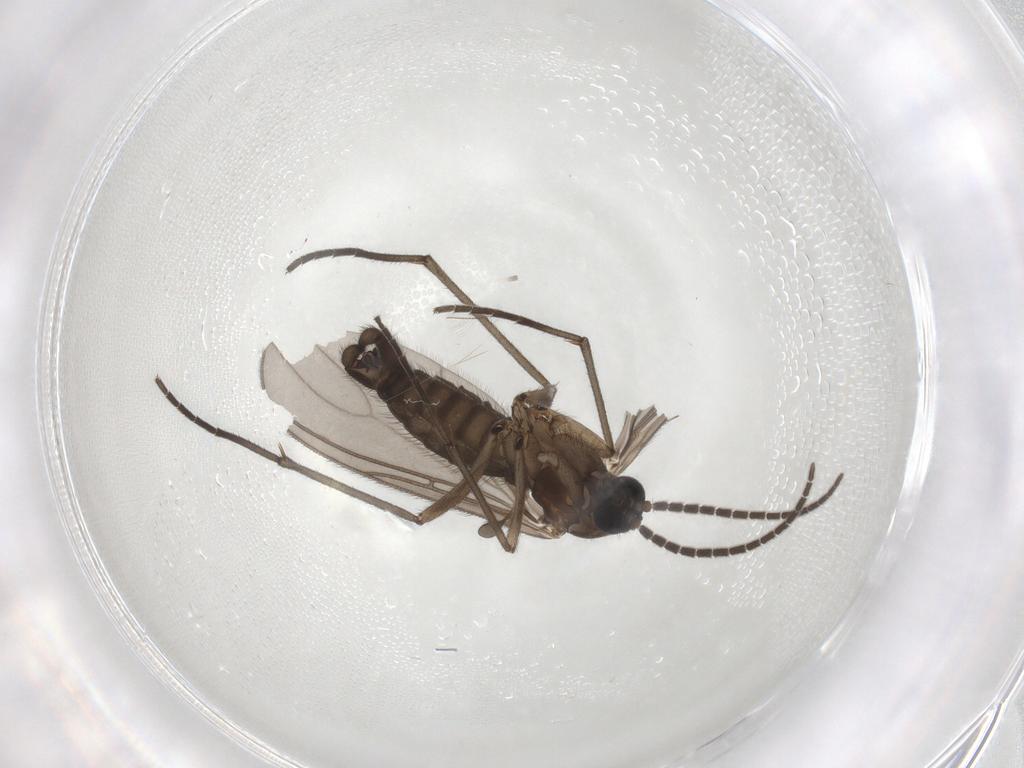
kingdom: Animalia
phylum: Arthropoda
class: Insecta
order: Diptera
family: Sciaridae
